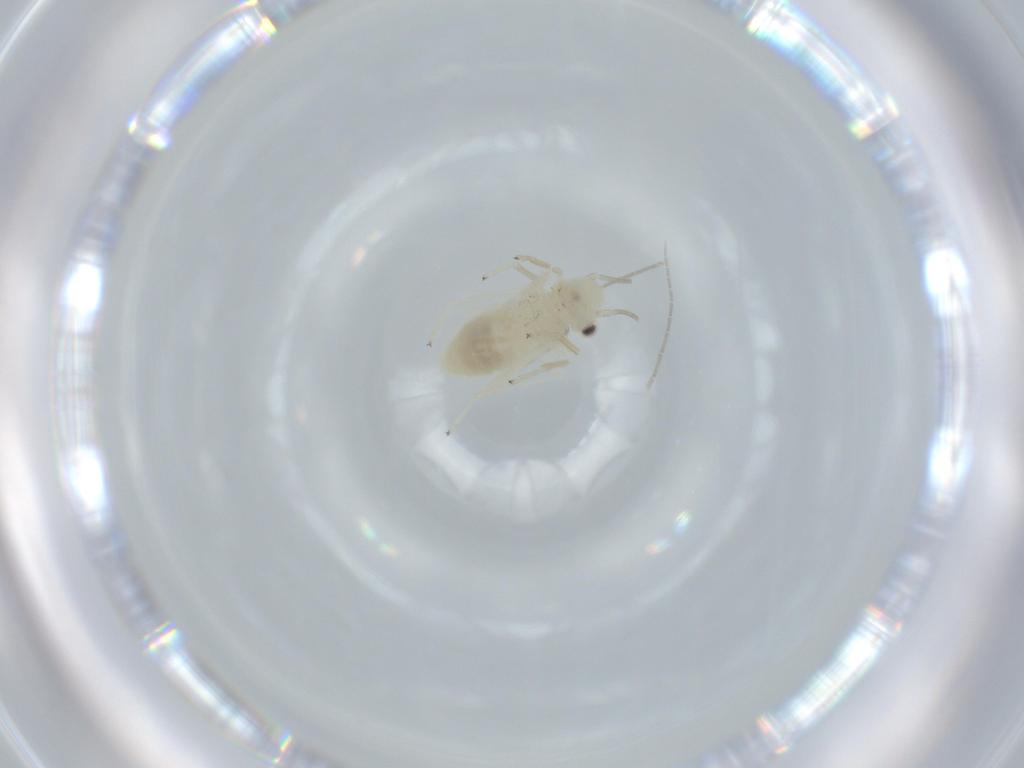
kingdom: Animalia
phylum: Arthropoda
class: Insecta
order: Psocodea
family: Caeciliusidae
